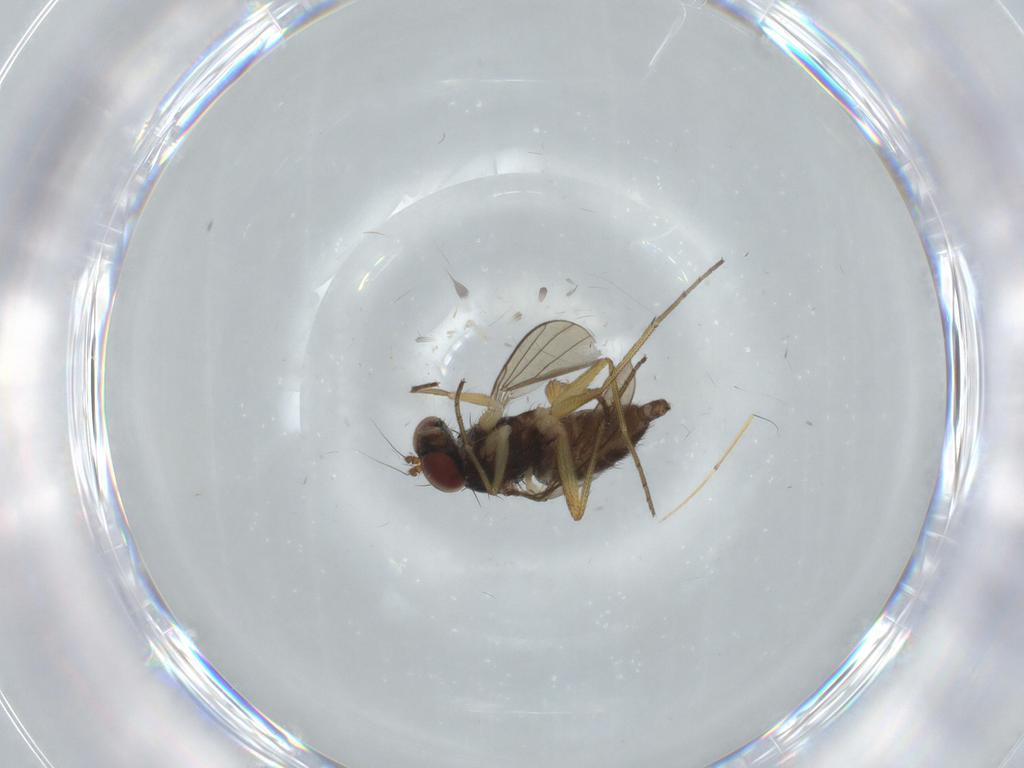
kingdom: Animalia
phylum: Arthropoda
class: Insecta
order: Diptera
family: Dolichopodidae
